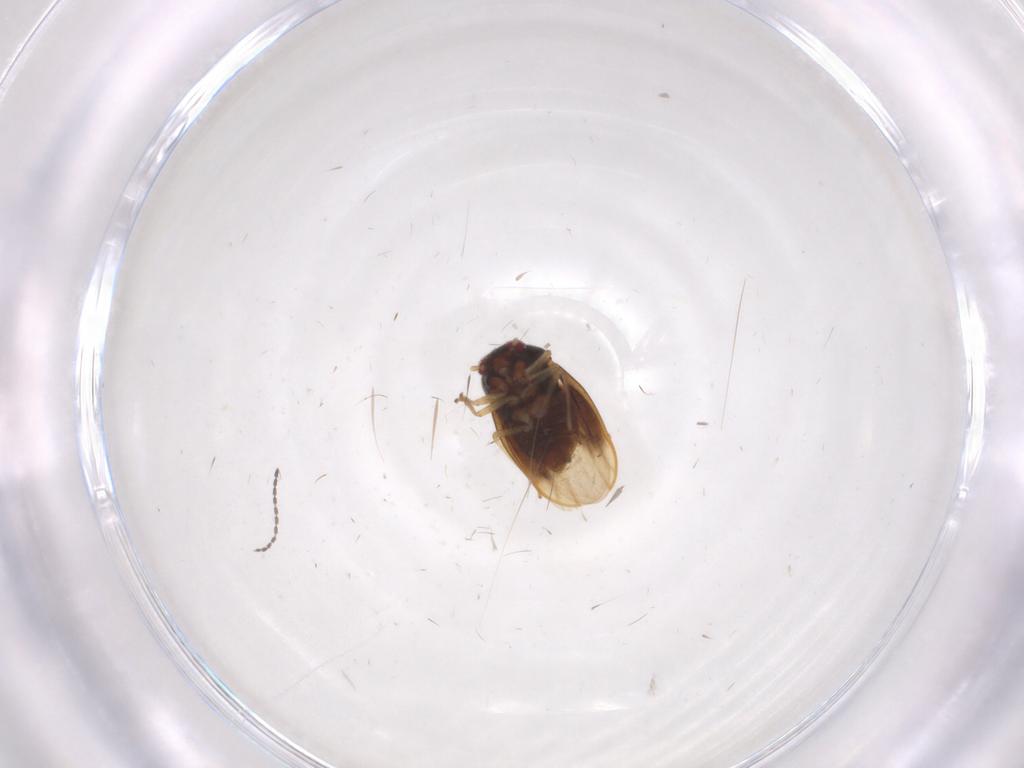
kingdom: Animalia
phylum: Arthropoda
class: Insecta
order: Hemiptera
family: Schizopteridae
